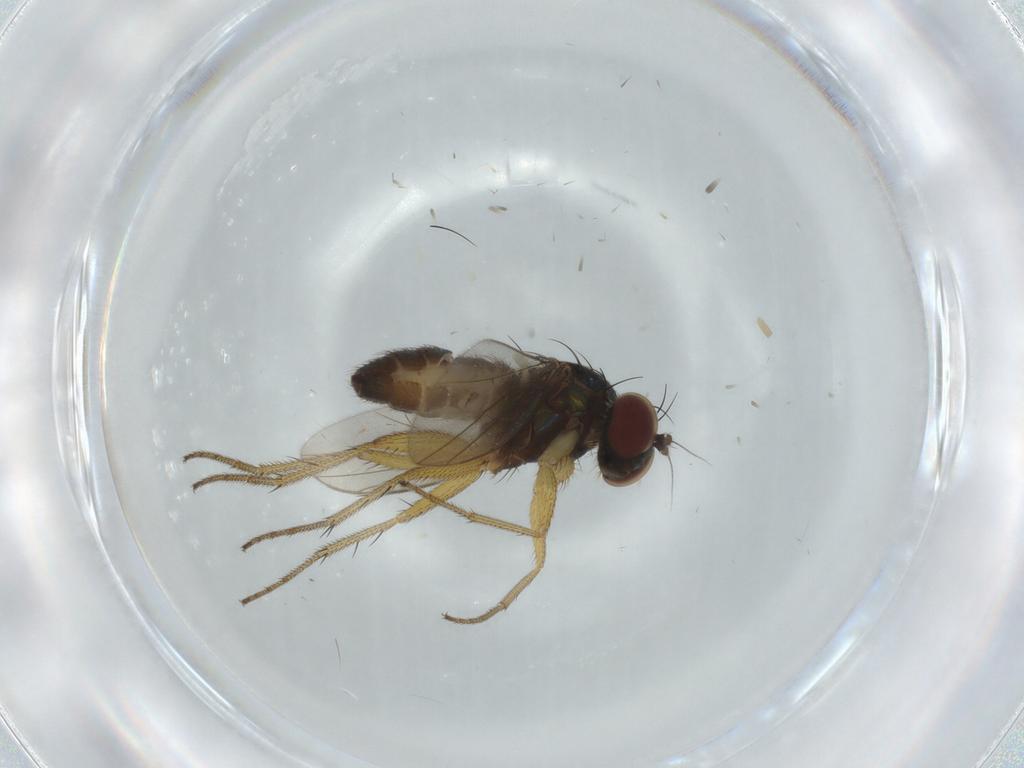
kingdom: Animalia
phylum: Arthropoda
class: Insecta
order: Diptera
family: Dolichopodidae
